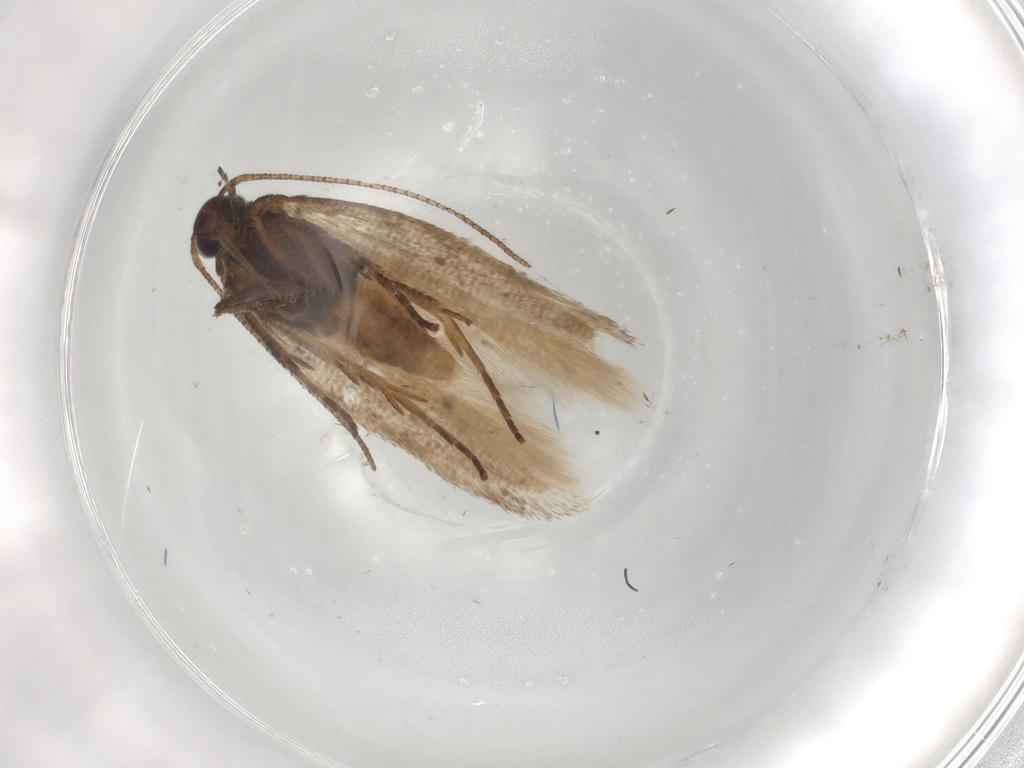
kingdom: Animalia
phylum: Arthropoda
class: Insecta
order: Lepidoptera
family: Gelechiidae
